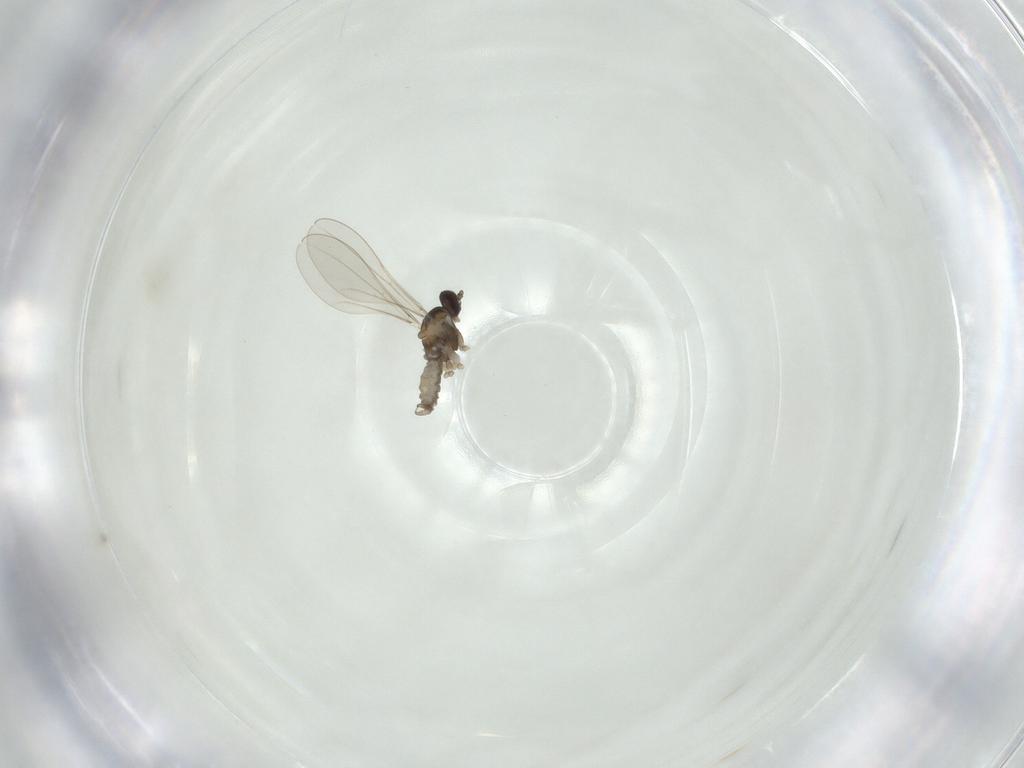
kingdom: Animalia
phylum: Arthropoda
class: Insecta
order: Diptera
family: Cecidomyiidae
